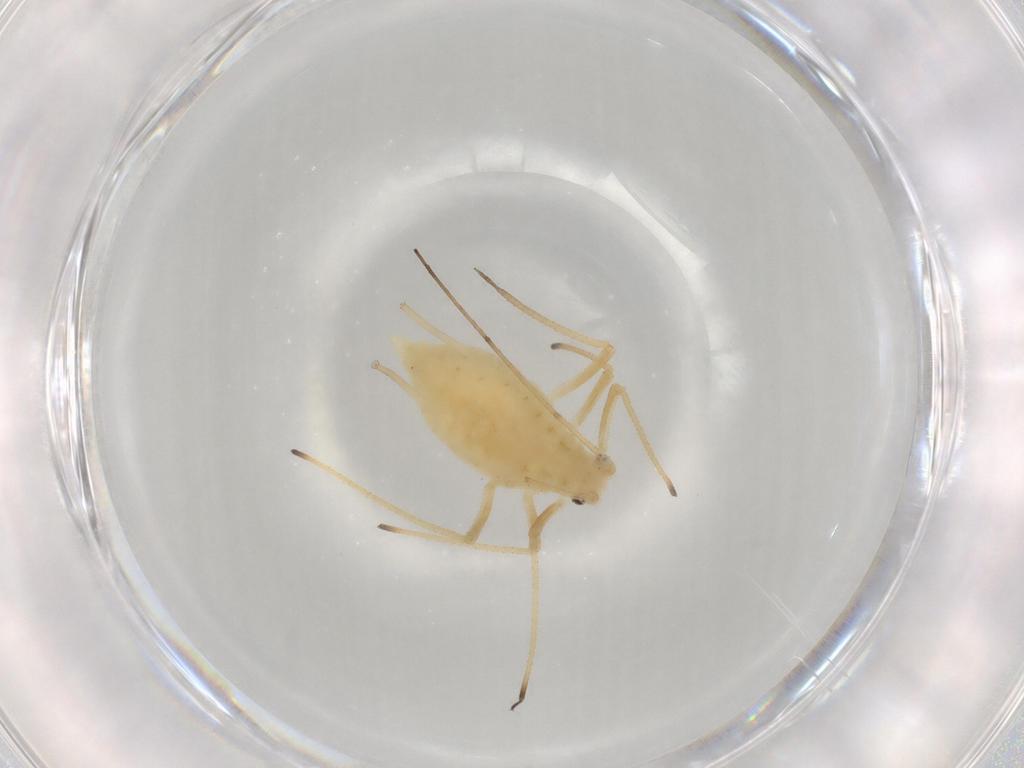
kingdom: Animalia
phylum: Arthropoda
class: Insecta
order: Hemiptera
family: Aphididae
